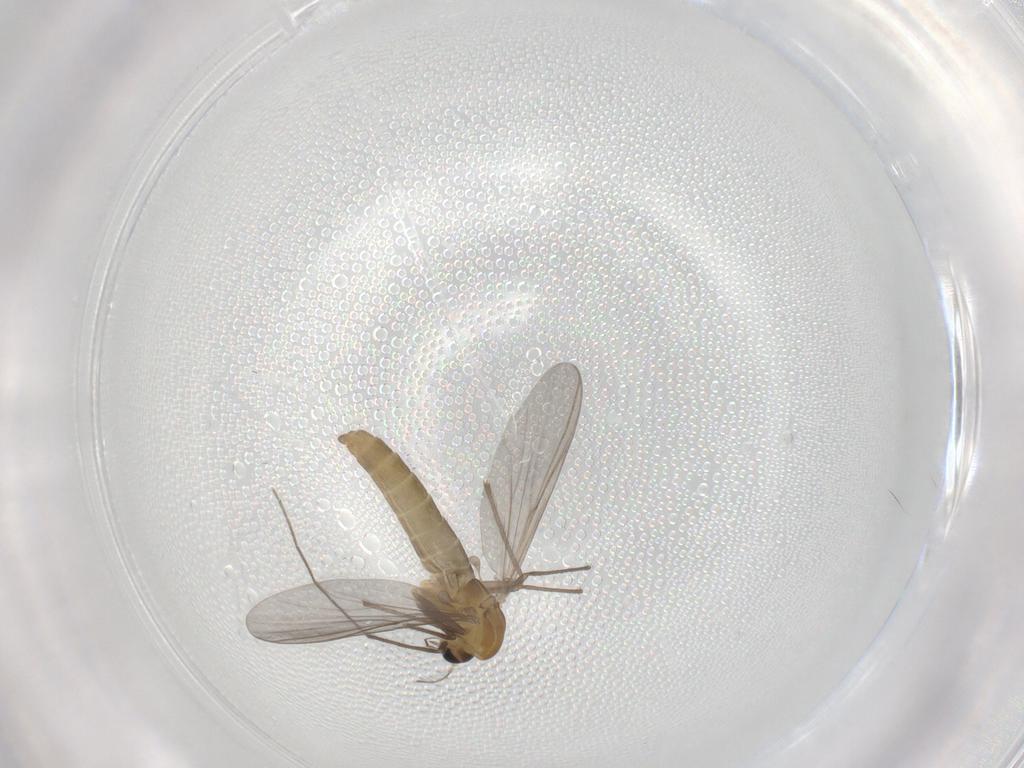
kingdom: Animalia
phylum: Arthropoda
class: Insecta
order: Diptera
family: Chironomidae
